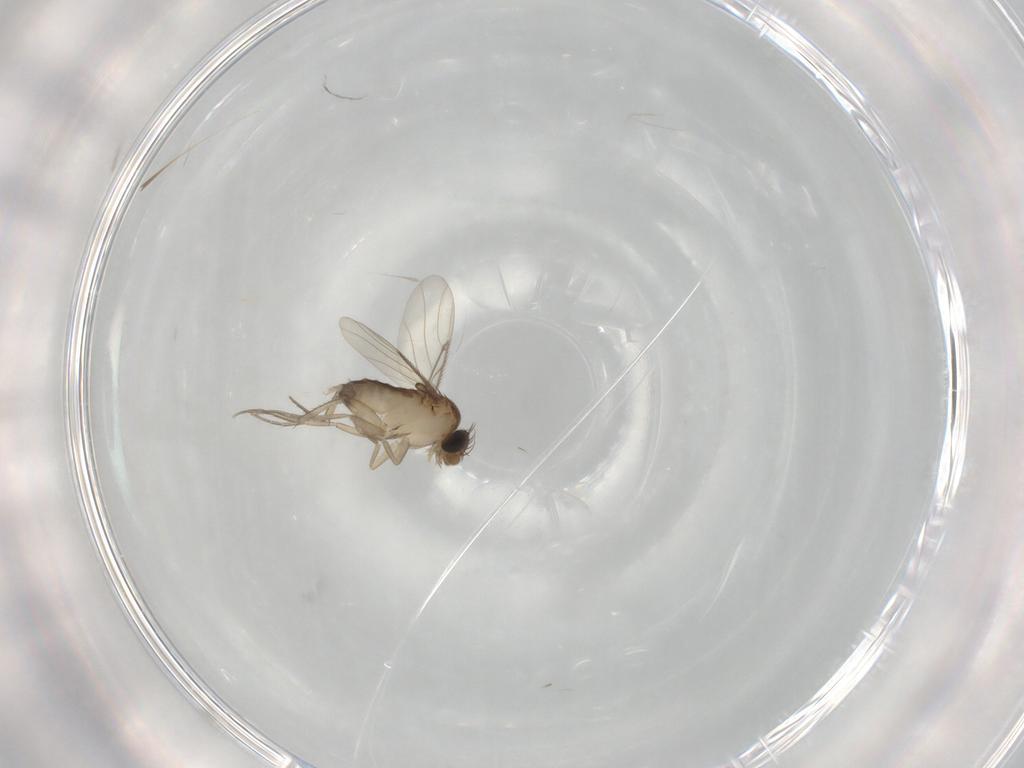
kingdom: Animalia
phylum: Arthropoda
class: Insecta
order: Diptera
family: Phoridae
